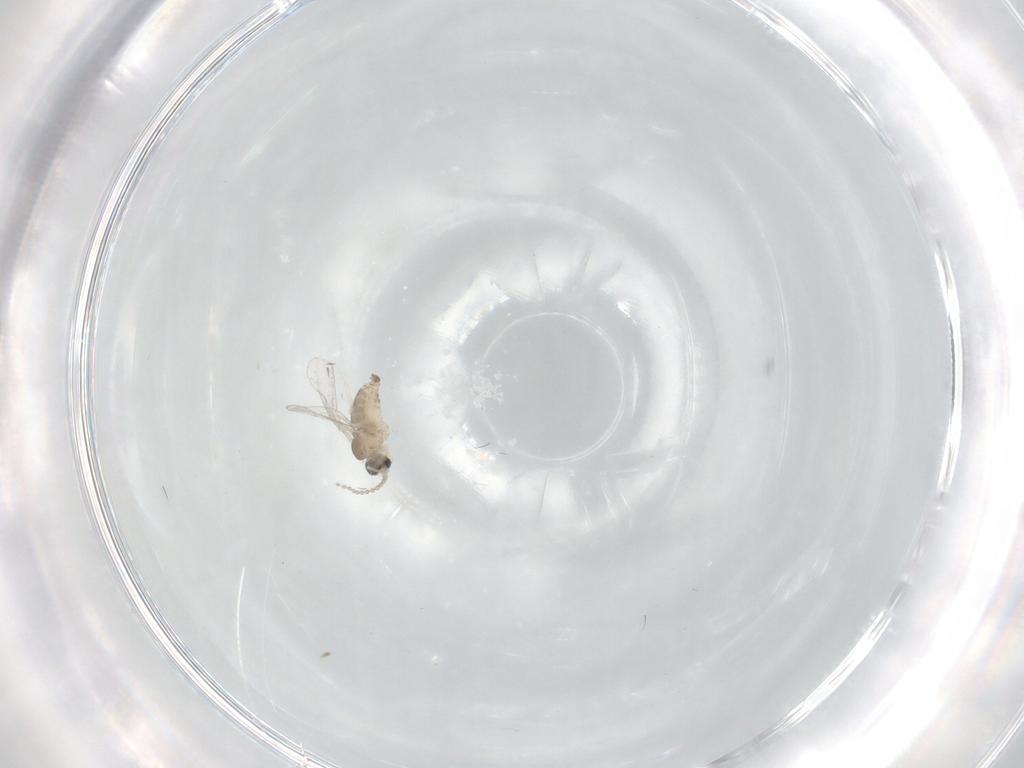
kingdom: Animalia
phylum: Arthropoda
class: Insecta
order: Diptera
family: Cecidomyiidae
